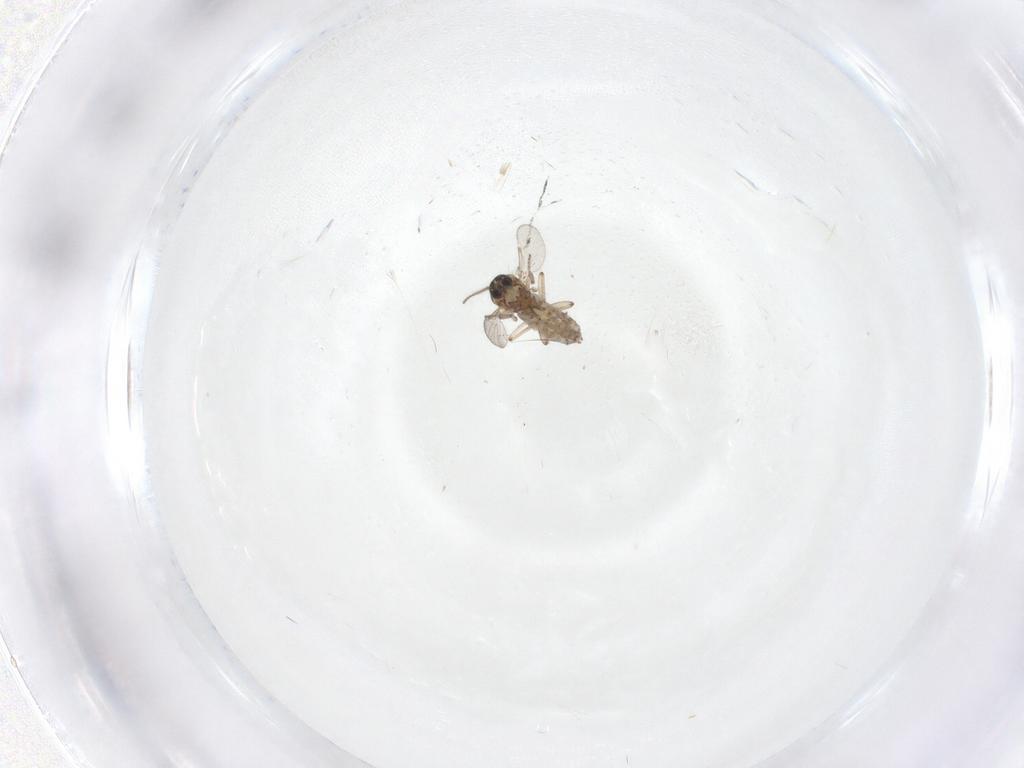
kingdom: Animalia
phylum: Arthropoda
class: Insecta
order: Diptera
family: Ceratopogonidae
